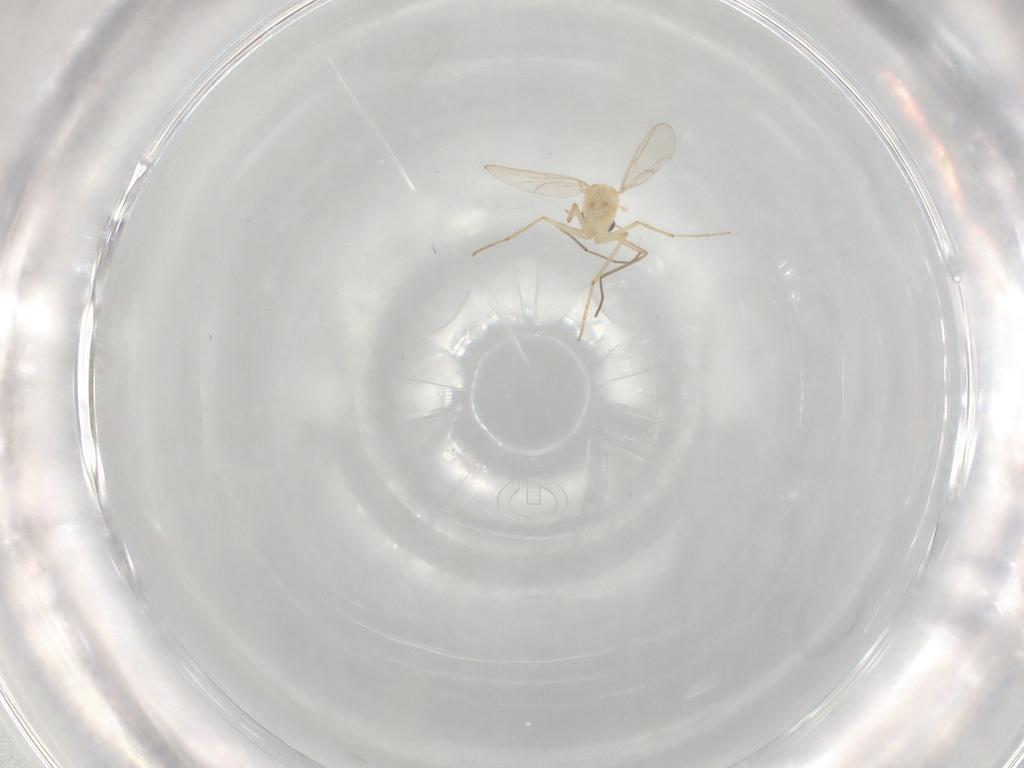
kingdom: Animalia
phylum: Arthropoda
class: Insecta
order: Diptera
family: Chironomidae
